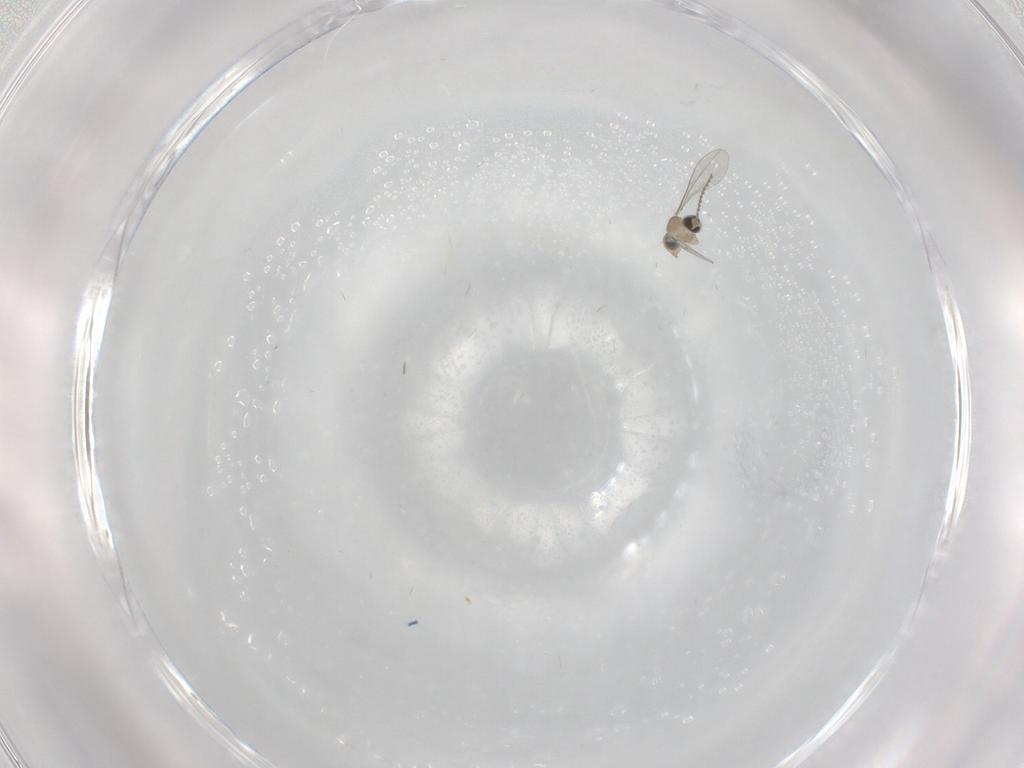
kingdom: Animalia
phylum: Arthropoda
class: Insecta
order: Diptera
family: Cecidomyiidae
